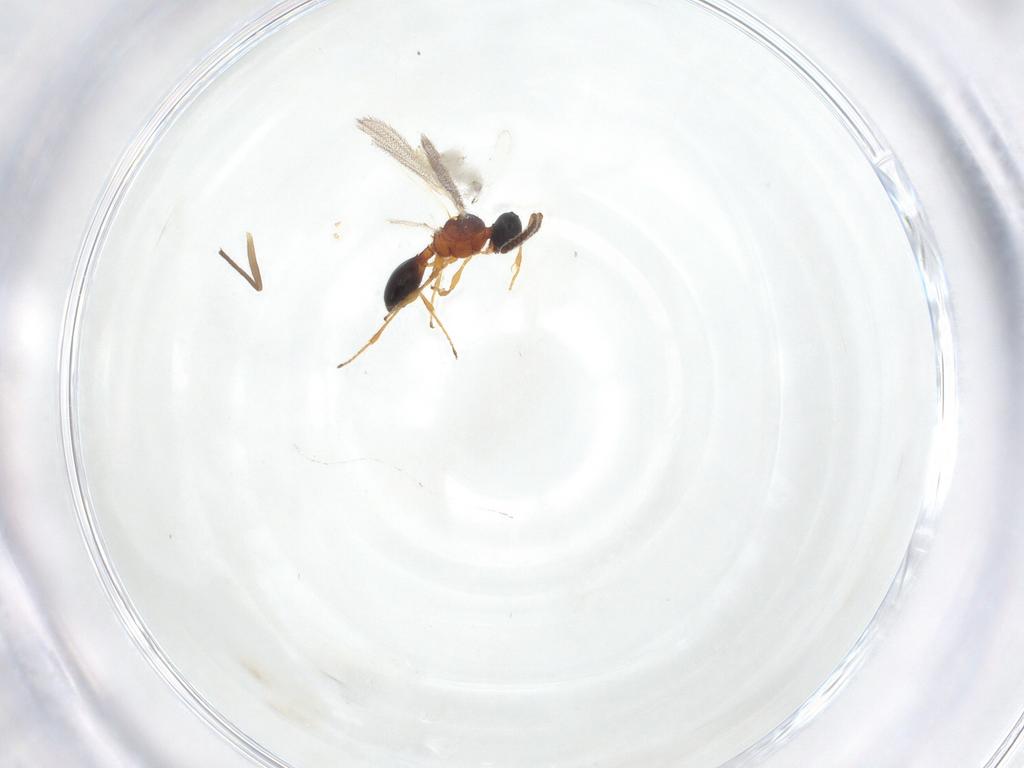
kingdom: Animalia
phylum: Arthropoda
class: Insecta
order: Hymenoptera
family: Diapriidae
